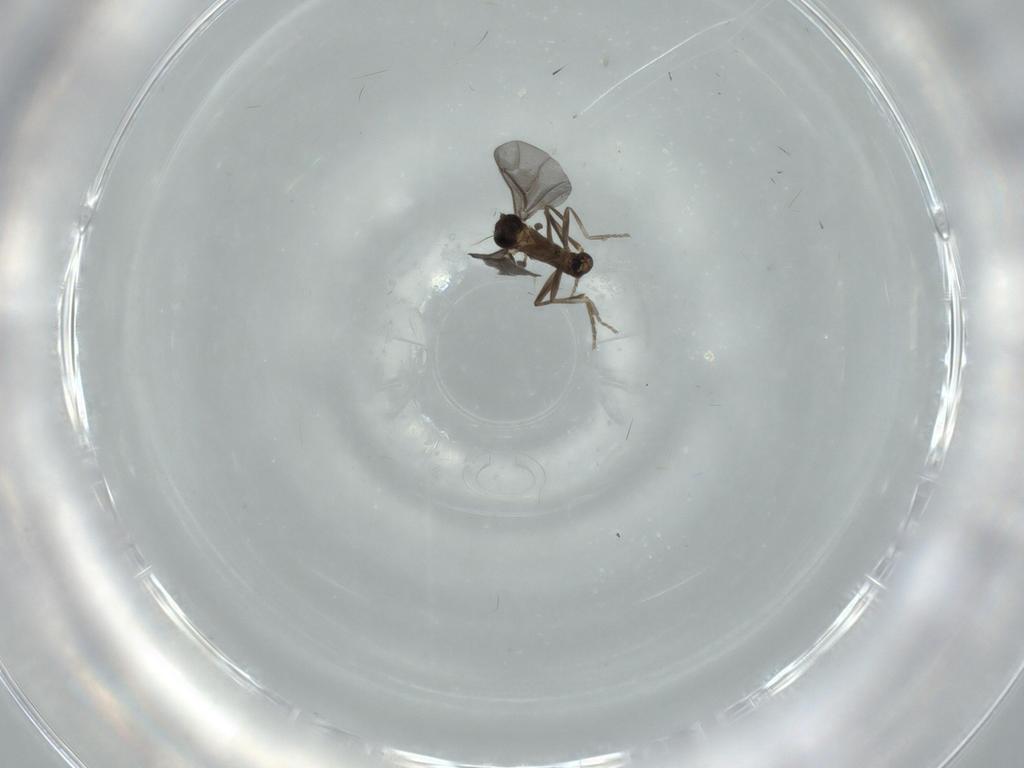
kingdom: Animalia
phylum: Arthropoda
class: Insecta
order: Diptera
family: Phoridae
